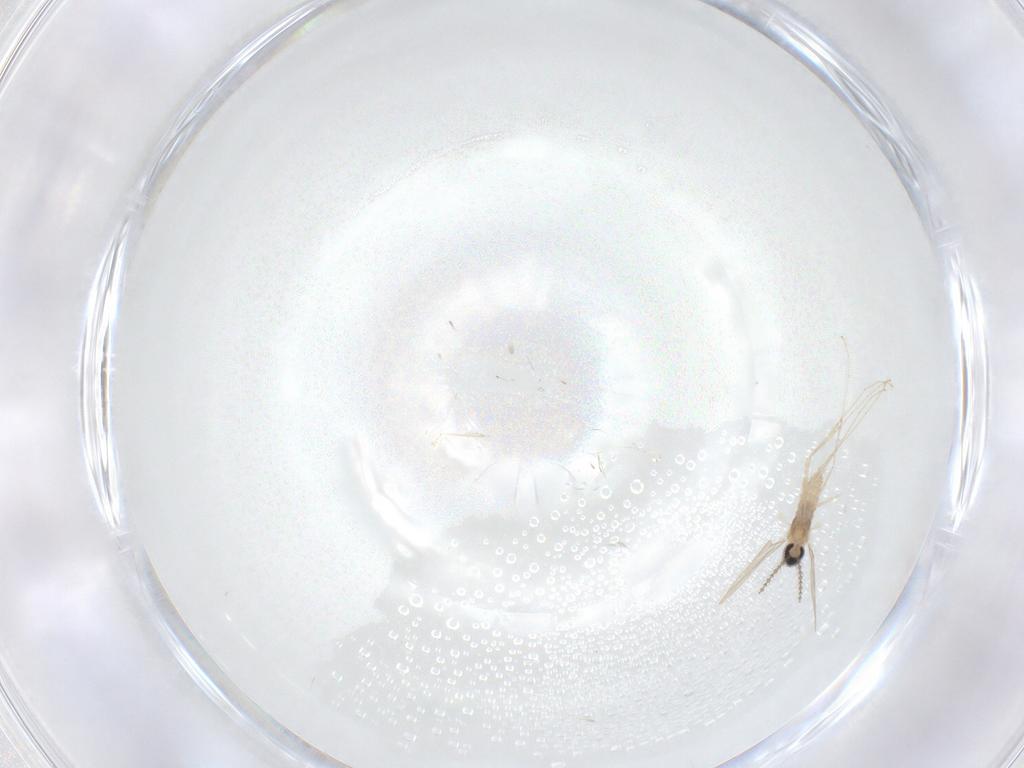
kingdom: Animalia
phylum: Arthropoda
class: Insecta
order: Diptera
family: Cecidomyiidae
